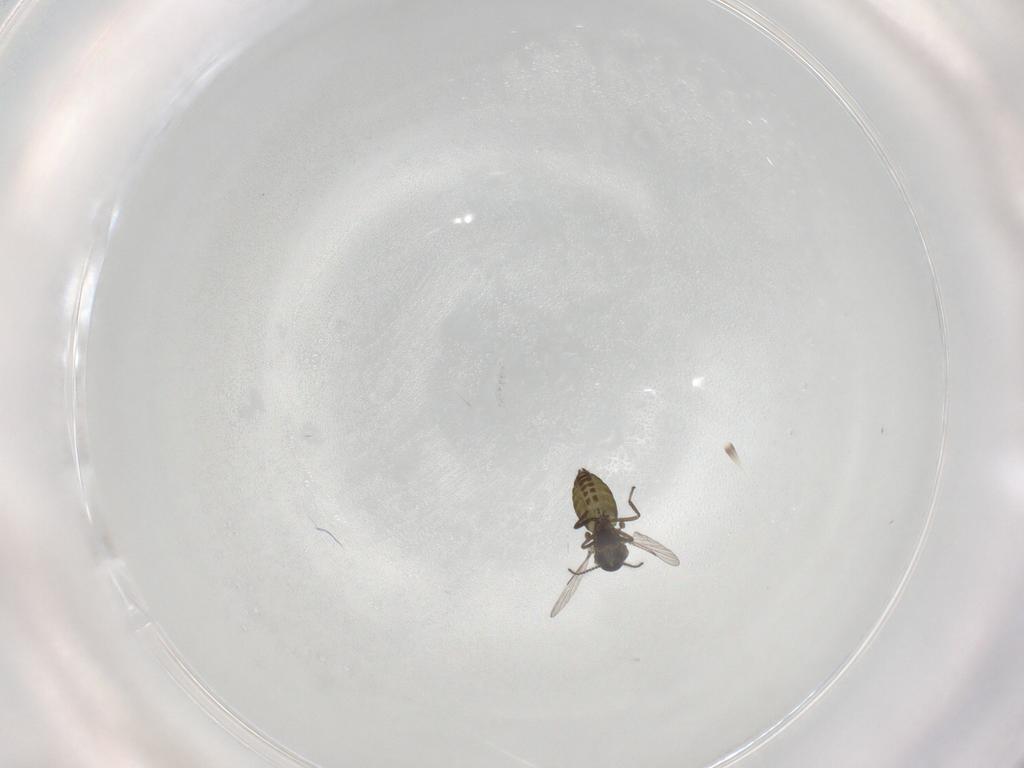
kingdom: Animalia
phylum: Arthropoda
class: Insecta
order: Diptera
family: Ceratopogonidae
